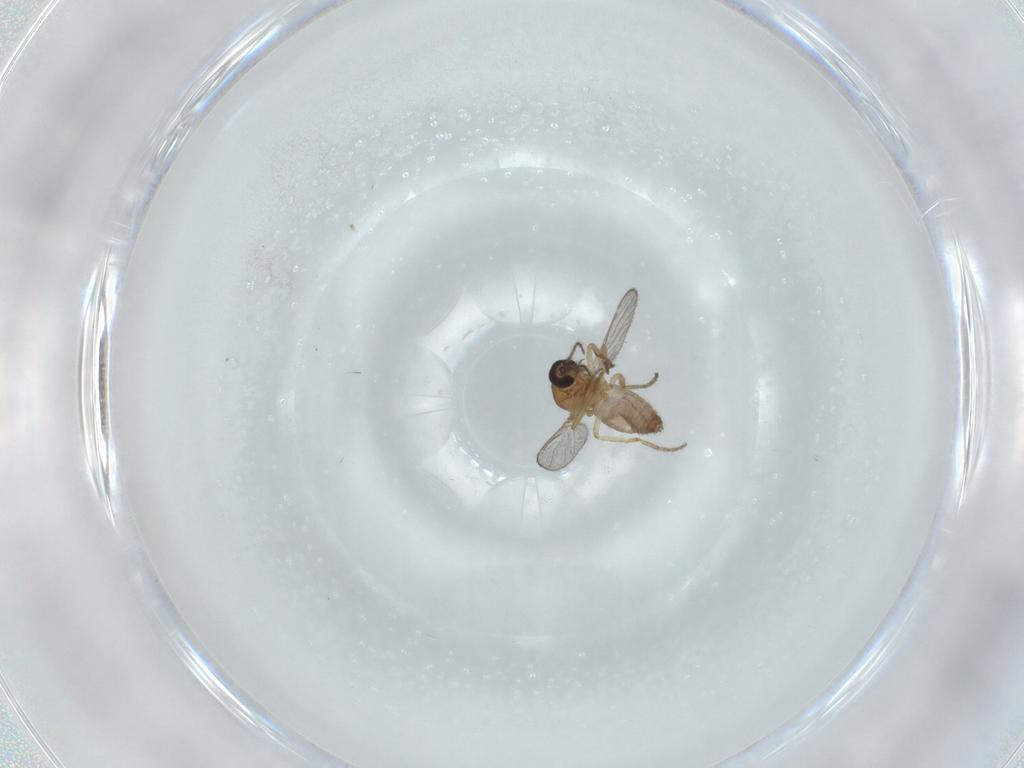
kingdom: Animalia
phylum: Arthropoda
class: Insecta
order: Diptera
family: Ceratopogonidae
